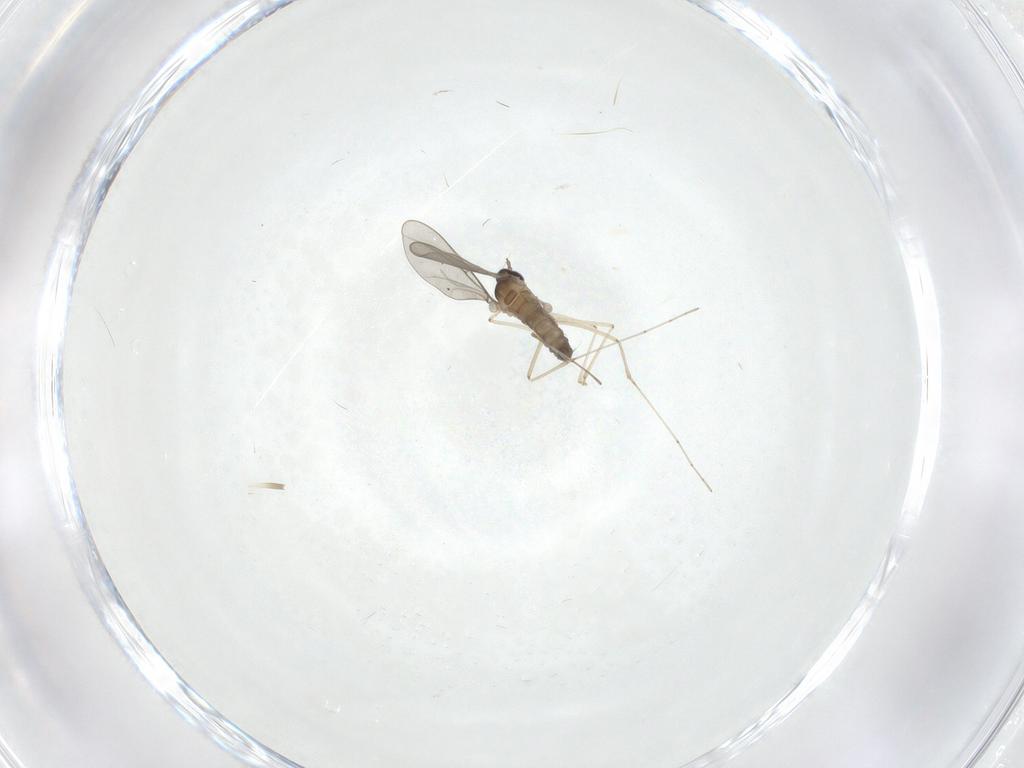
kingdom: Animalia
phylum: Arthropoda
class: Insecta
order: Diptera
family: Cecidomyiidae
